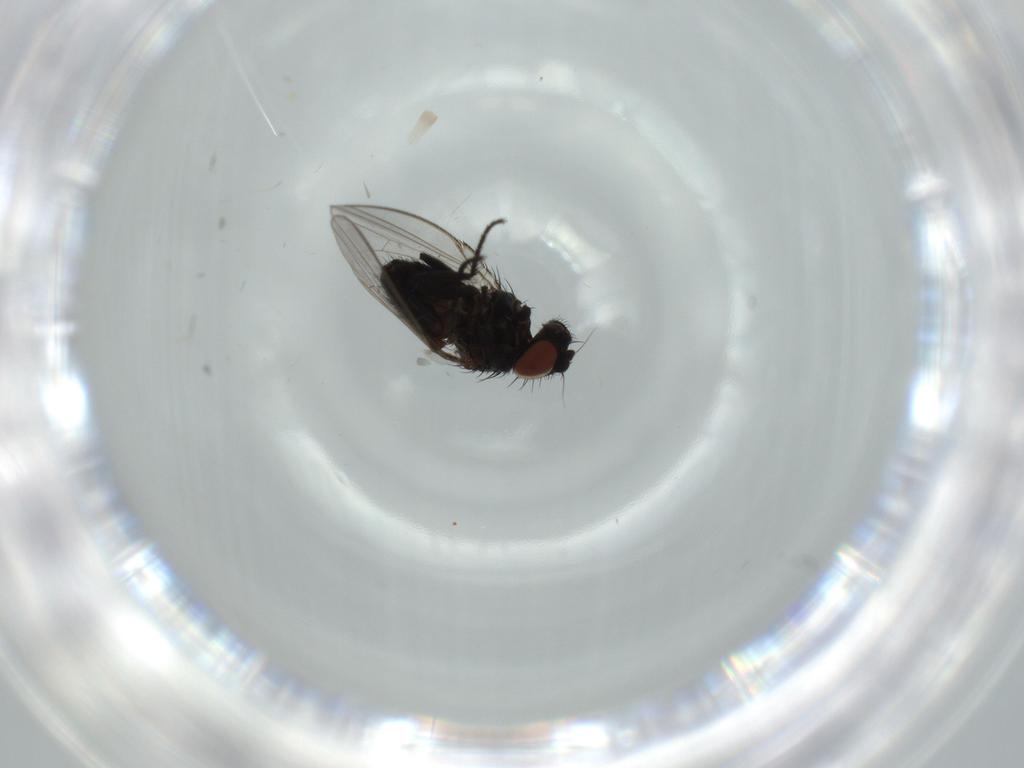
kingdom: Animalia
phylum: Arthropoda
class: Insecta
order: Diptera
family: Milichiidae
